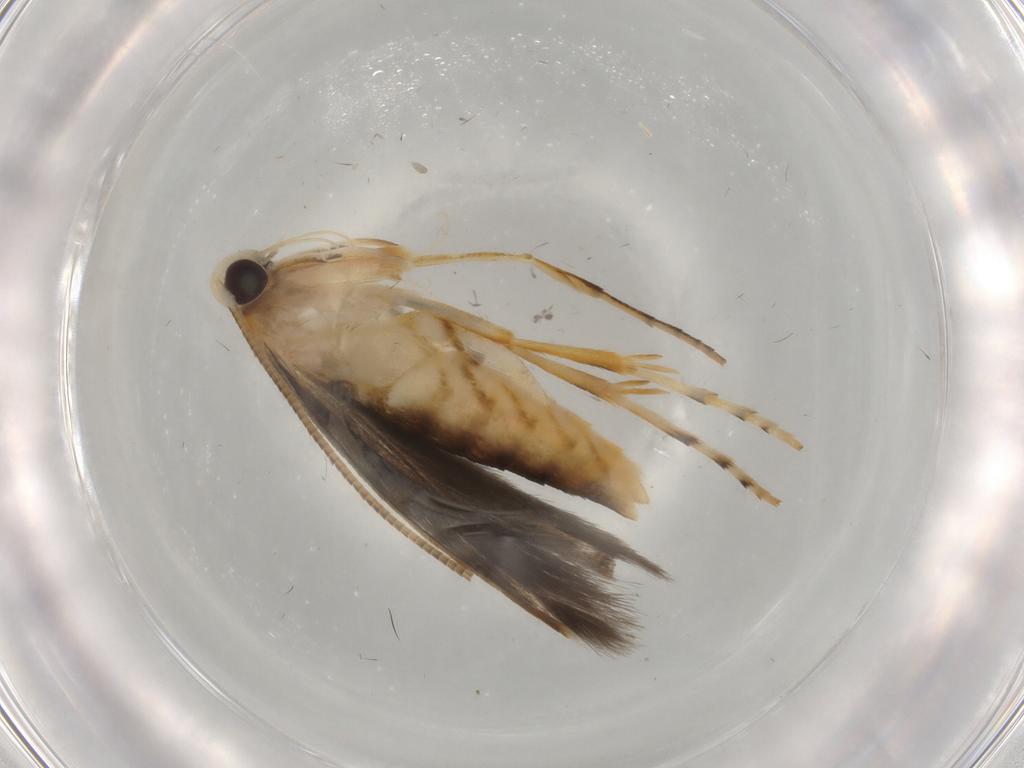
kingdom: Animalia
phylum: Arthropoda
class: Insecta
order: Lepidoptera
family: Gracillariidae
